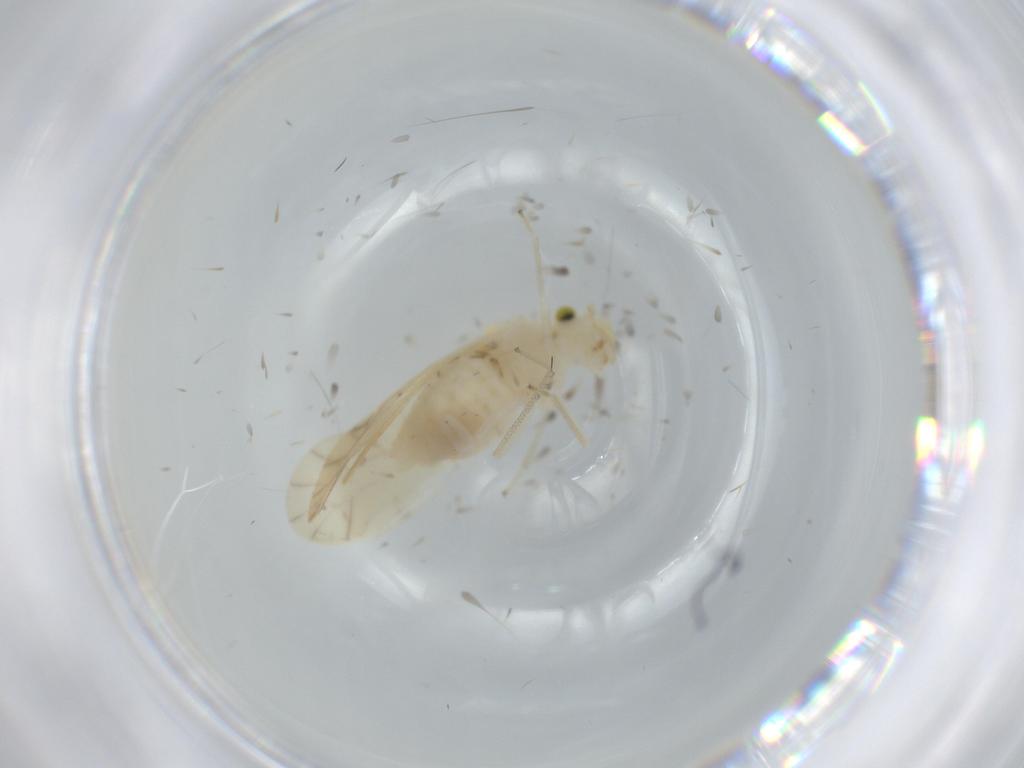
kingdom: Animalia
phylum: Arthropoda
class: Insecta
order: Psocodea
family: Caeciliusidae
